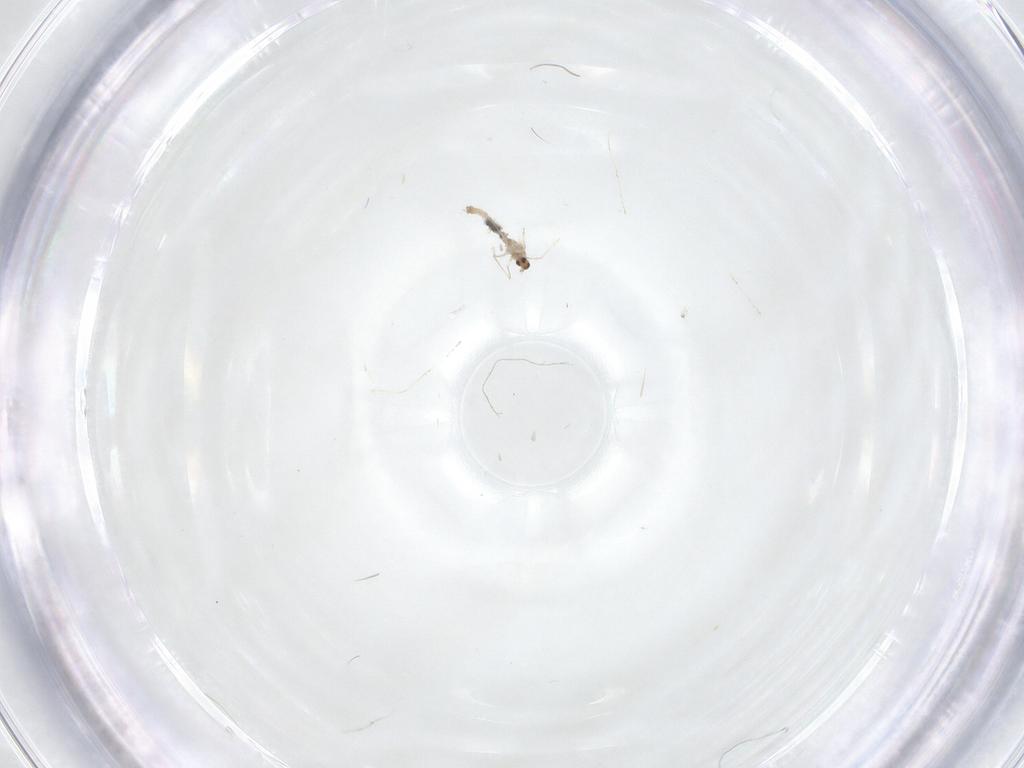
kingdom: Animalia
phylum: Arthropoda
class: Insecta
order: Diptera
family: Cecidomyiidae
